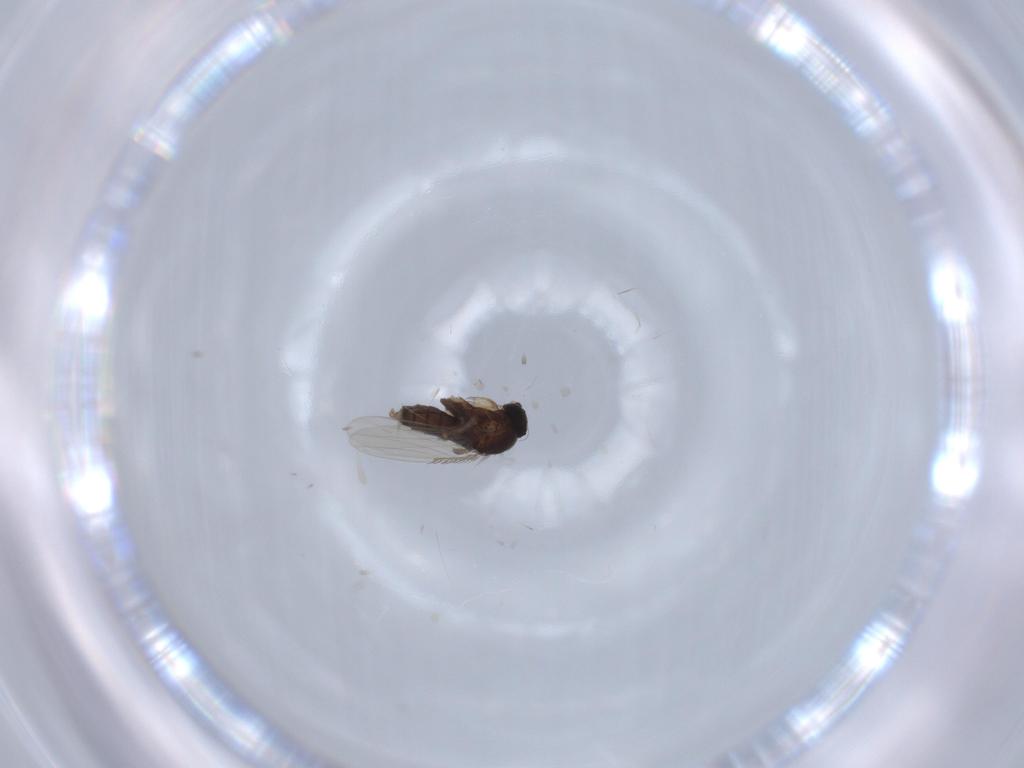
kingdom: Animalia
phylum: Arthropoda
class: Insecta
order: Diptera
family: Phoridae
